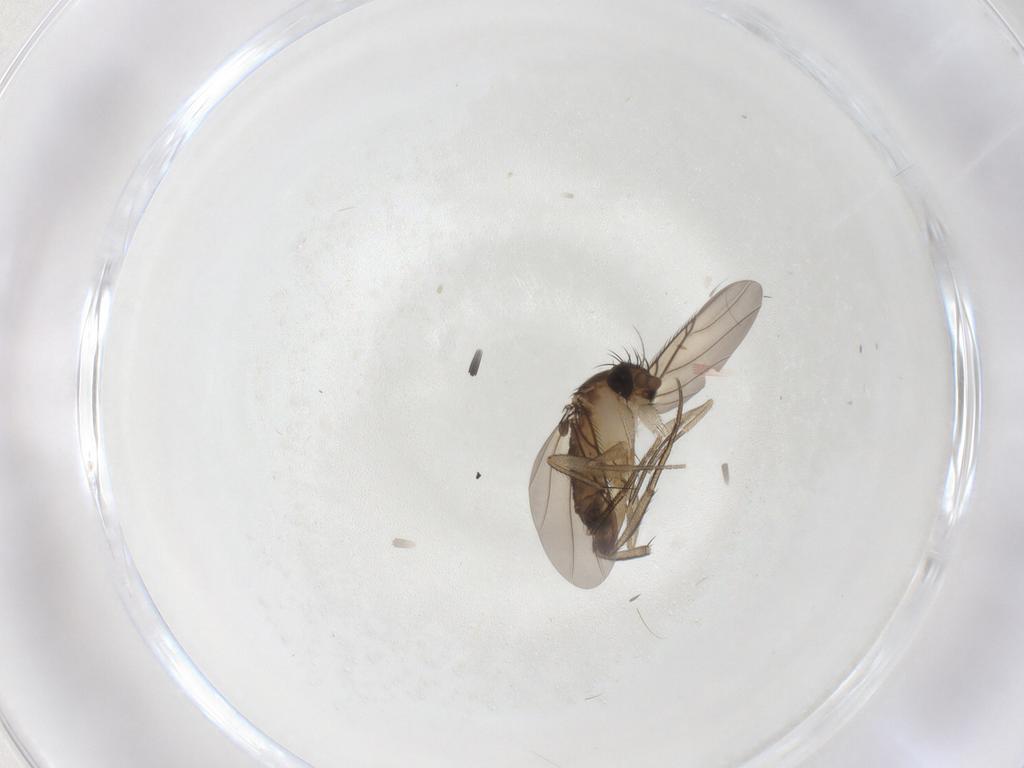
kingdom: Animalia
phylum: Arthropoda
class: Insecta
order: Diptera
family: Phoridae
